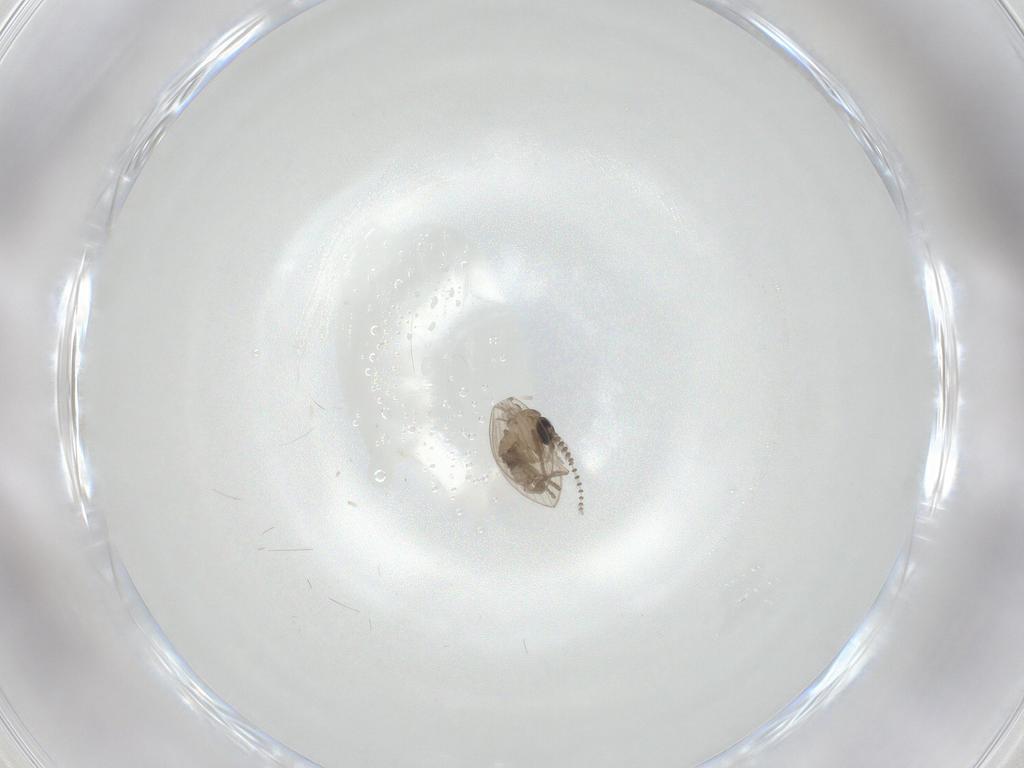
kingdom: Animalia
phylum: Arthropoda
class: Insecta
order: Diptera
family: Psychodidae
